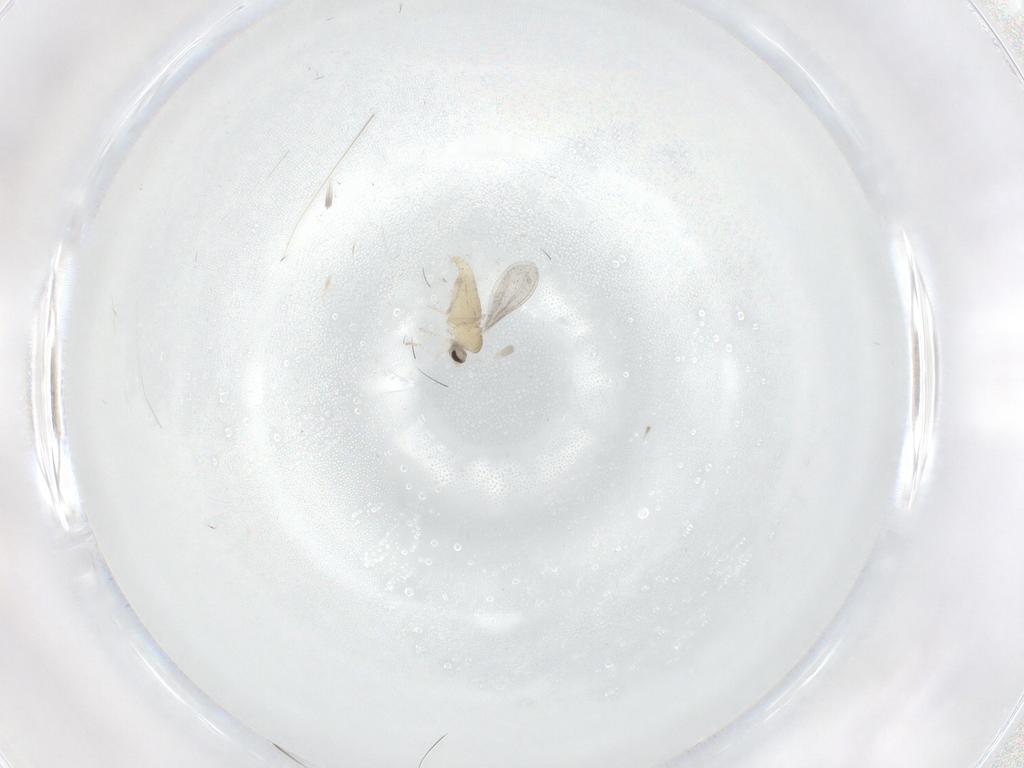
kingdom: Animalia
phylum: Arthropoda
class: Insecta
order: Diptera
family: Cecidomyiidae
